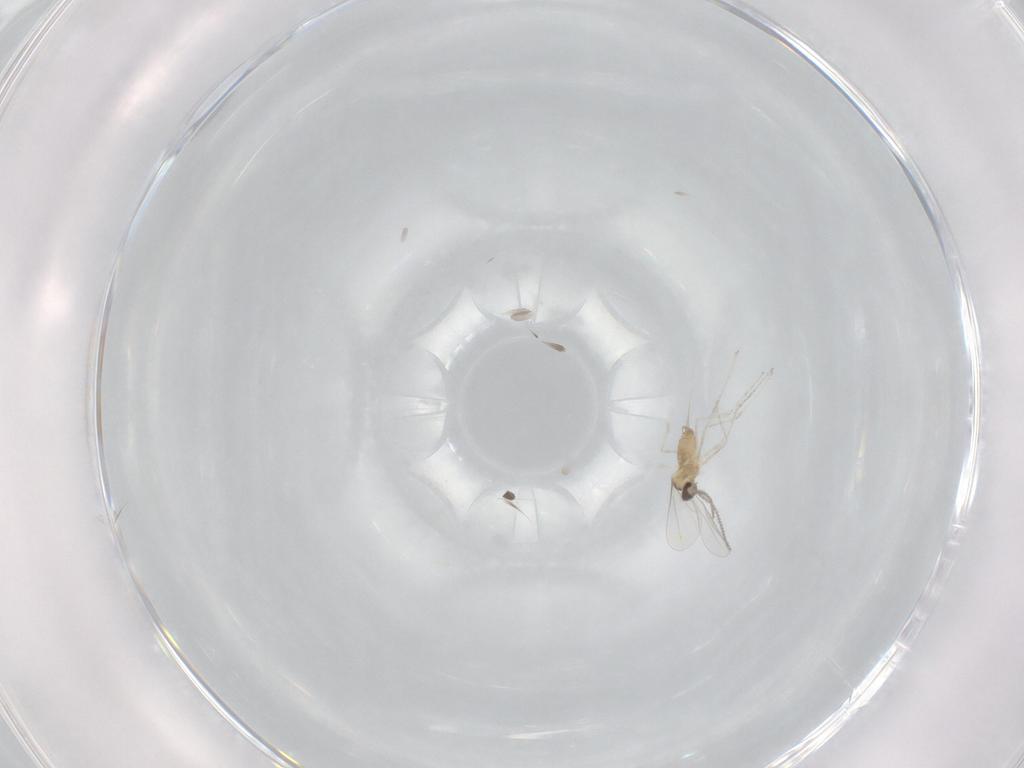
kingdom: Animalia
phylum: Arthropoda
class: Insecta
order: Diptera
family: Cecidomyiidae
